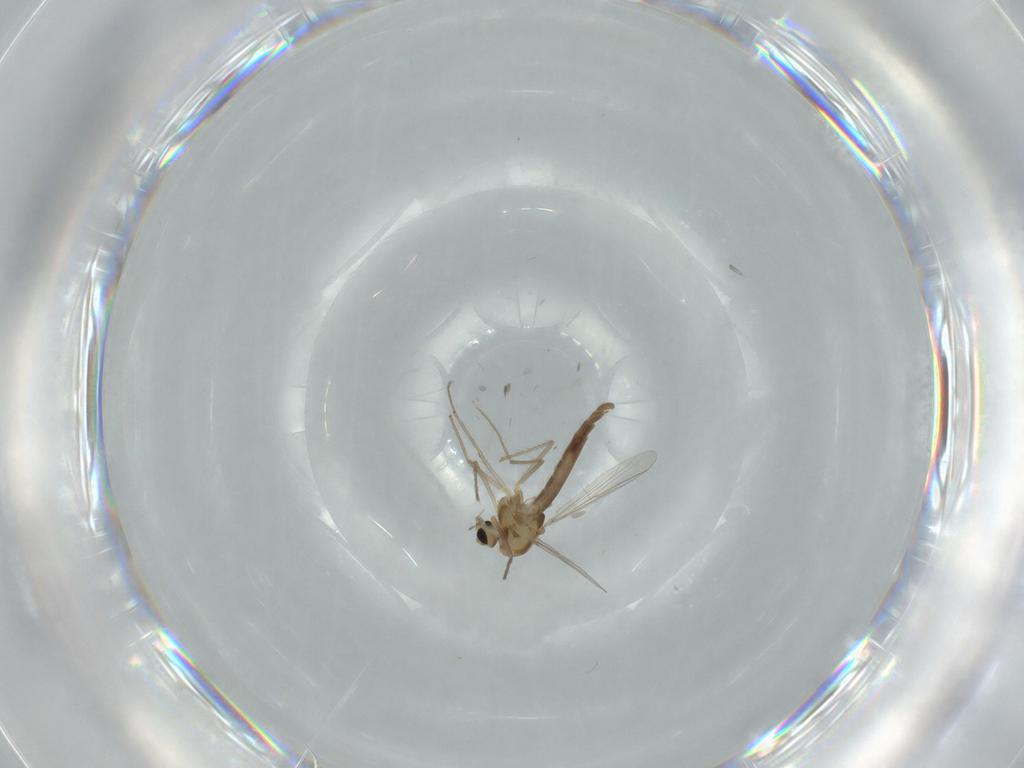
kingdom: Animalia
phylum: Arthropoda
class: Insecta
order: Diptera
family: Chironomidae
